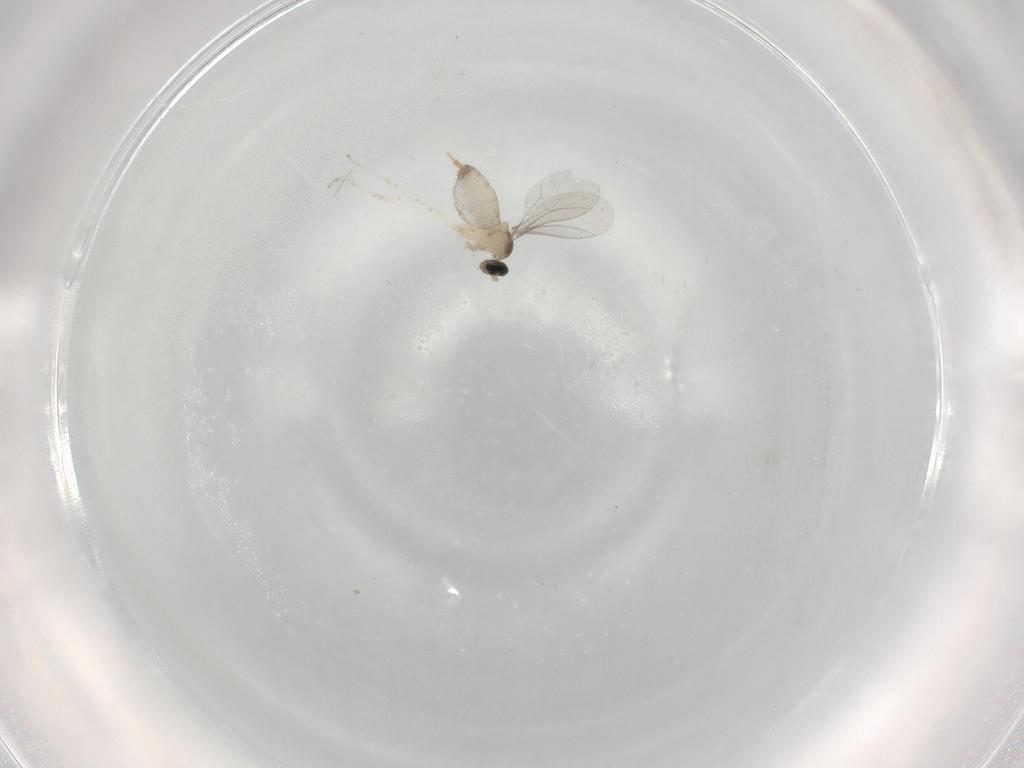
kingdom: Animalia
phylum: Arthropoda
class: Insecta
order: Diptera
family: Cecidomyiidae
